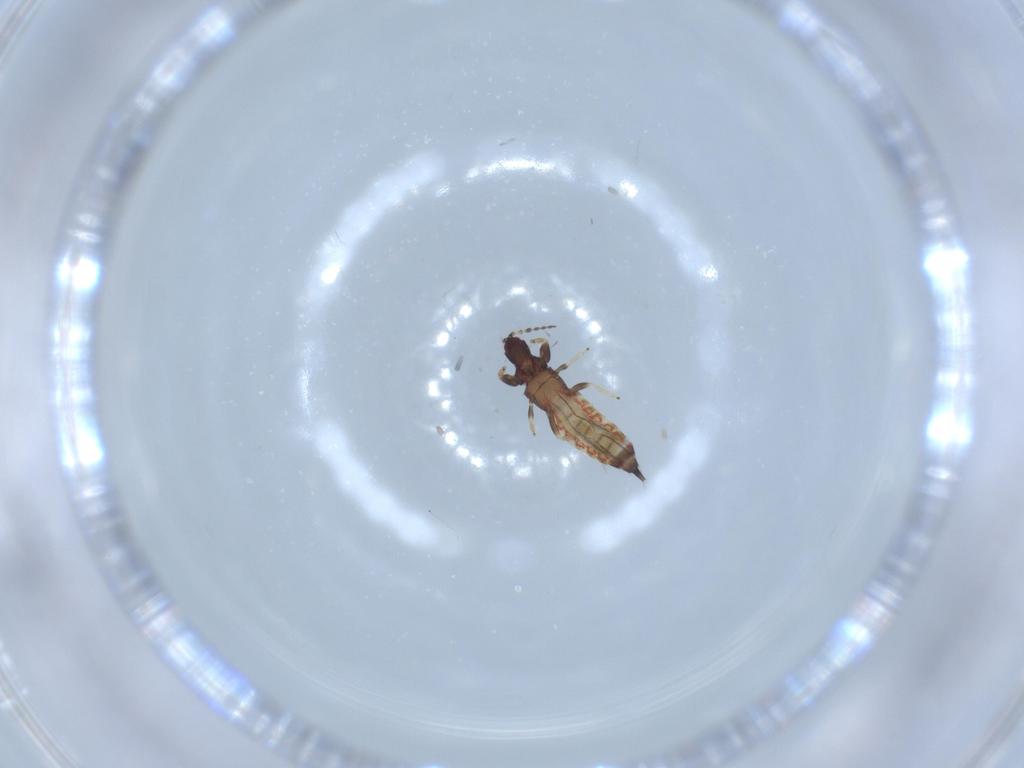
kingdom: Animalia
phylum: Arthropoda
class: Insecta
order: Thysanoptera
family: Phlaeothripidae
